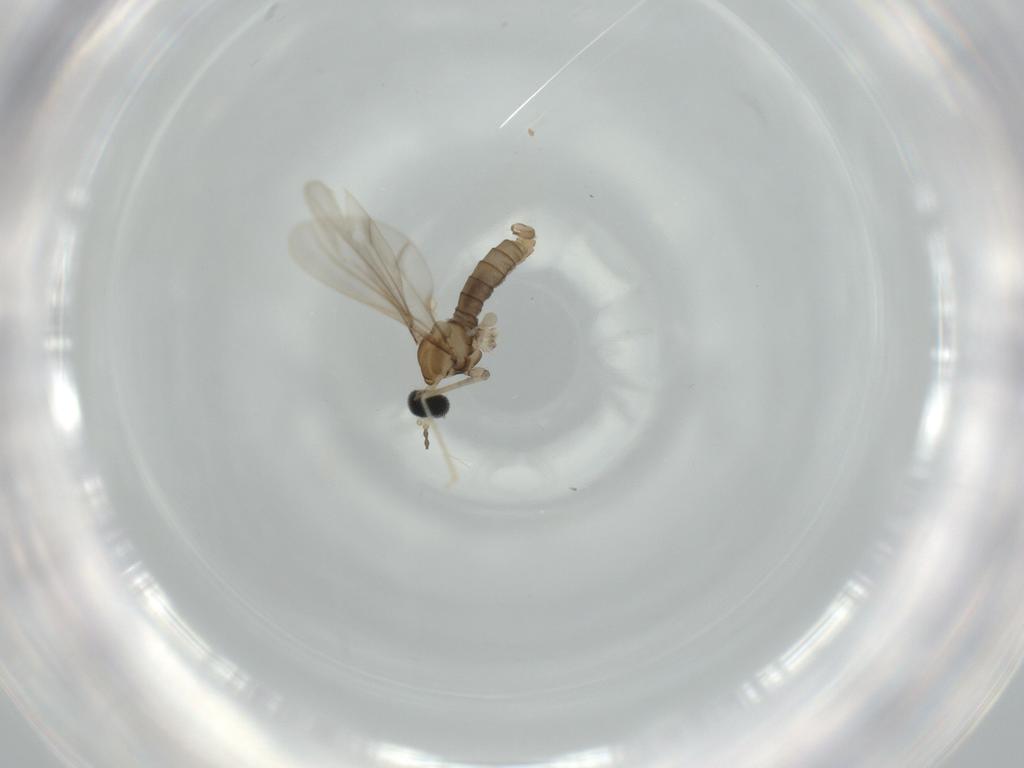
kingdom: Animalia
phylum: Arthropoda
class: Insecta
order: Diptera
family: Cecidomyiidae
